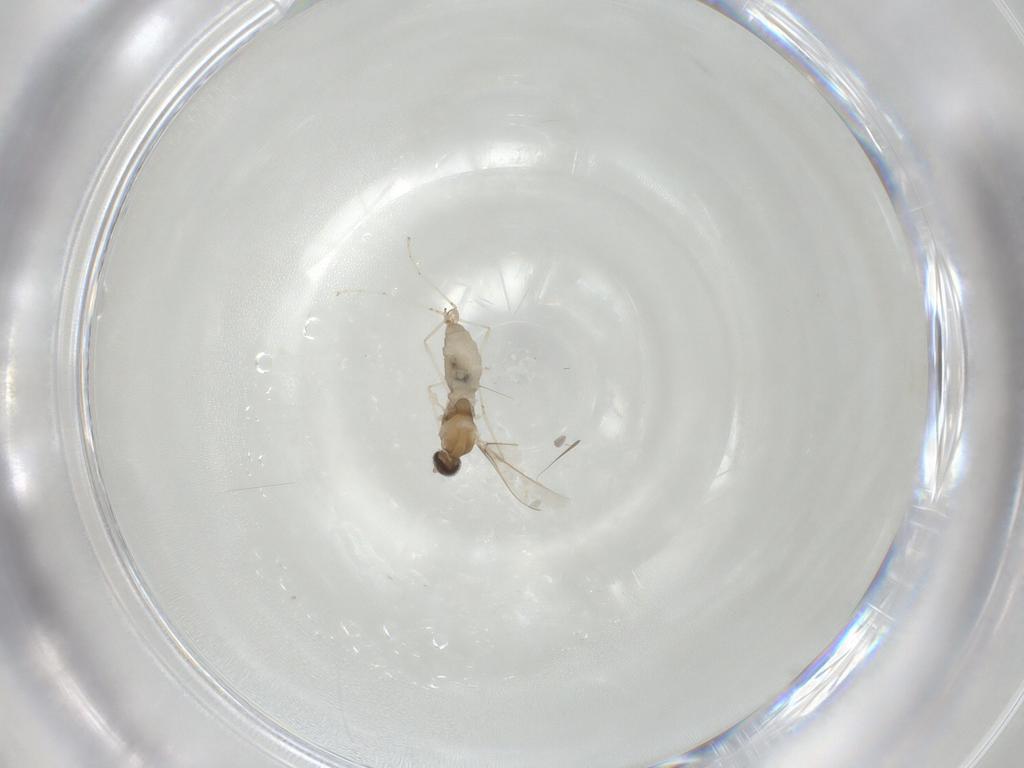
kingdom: Animalia
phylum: Arthropoda
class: Insecta
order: Diptera
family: Cecidomyiidae
